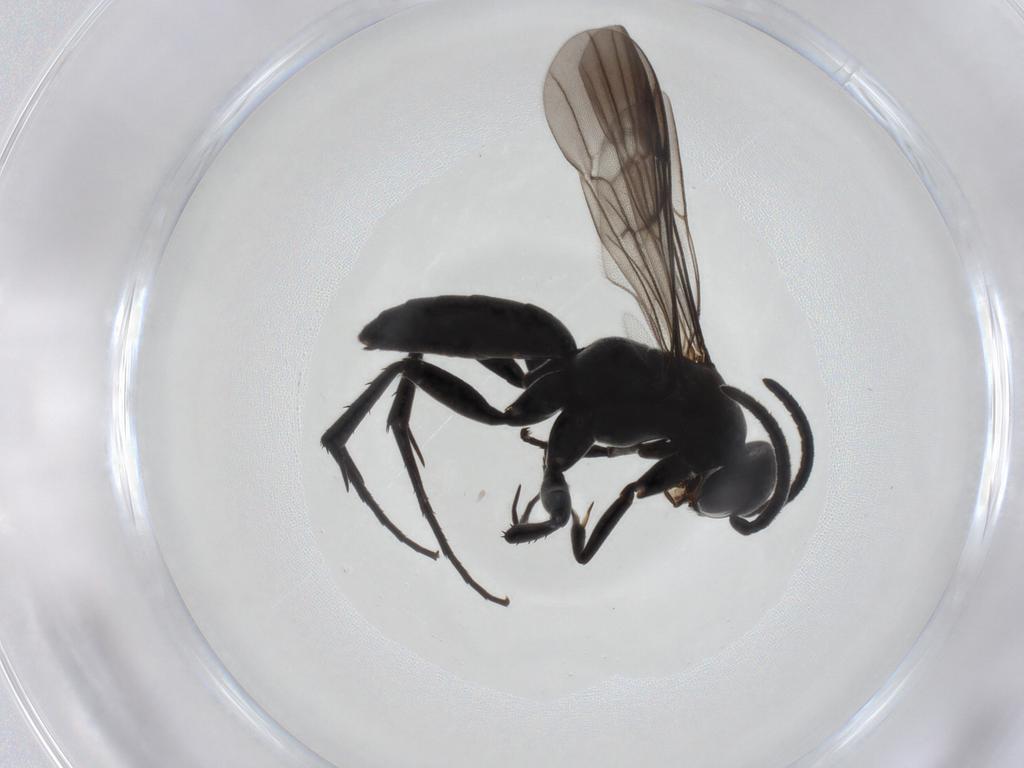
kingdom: Animalia
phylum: Arthropoda
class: Insecta
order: Hymenoptera
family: Pompilidae
